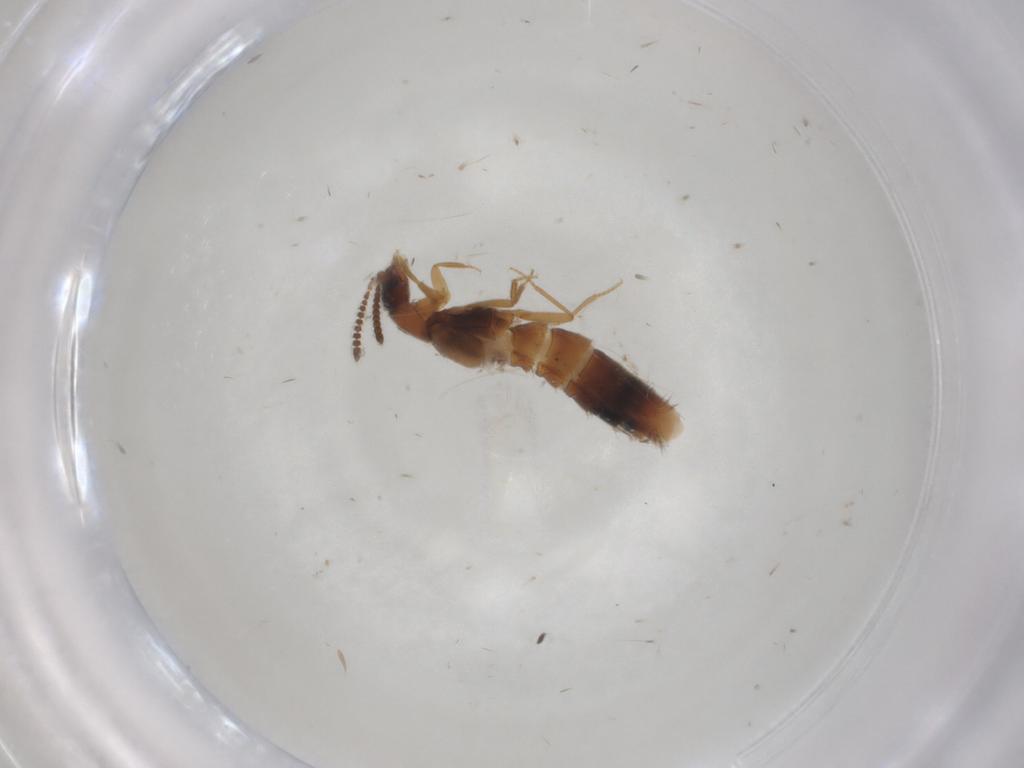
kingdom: Animalia
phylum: Arthropoda
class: Insecta
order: Coleoptera
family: Staphylinidae
